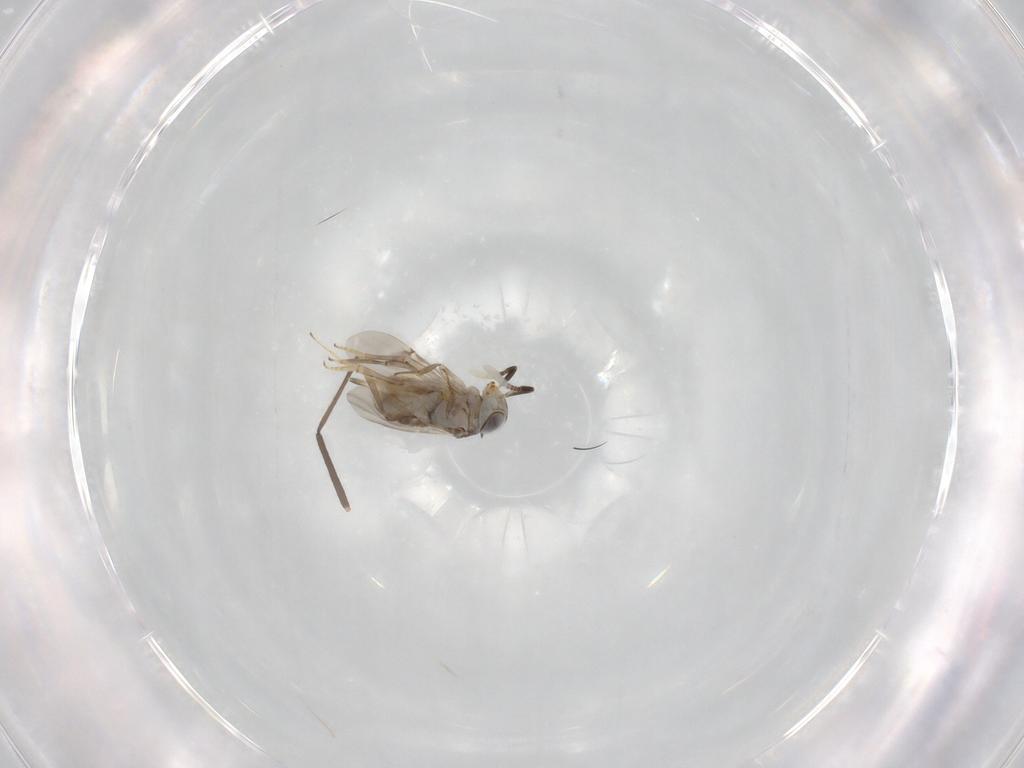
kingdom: Animalia
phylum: Arthropoda
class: Insecta
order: Hymenoptera
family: Encyrtidae
